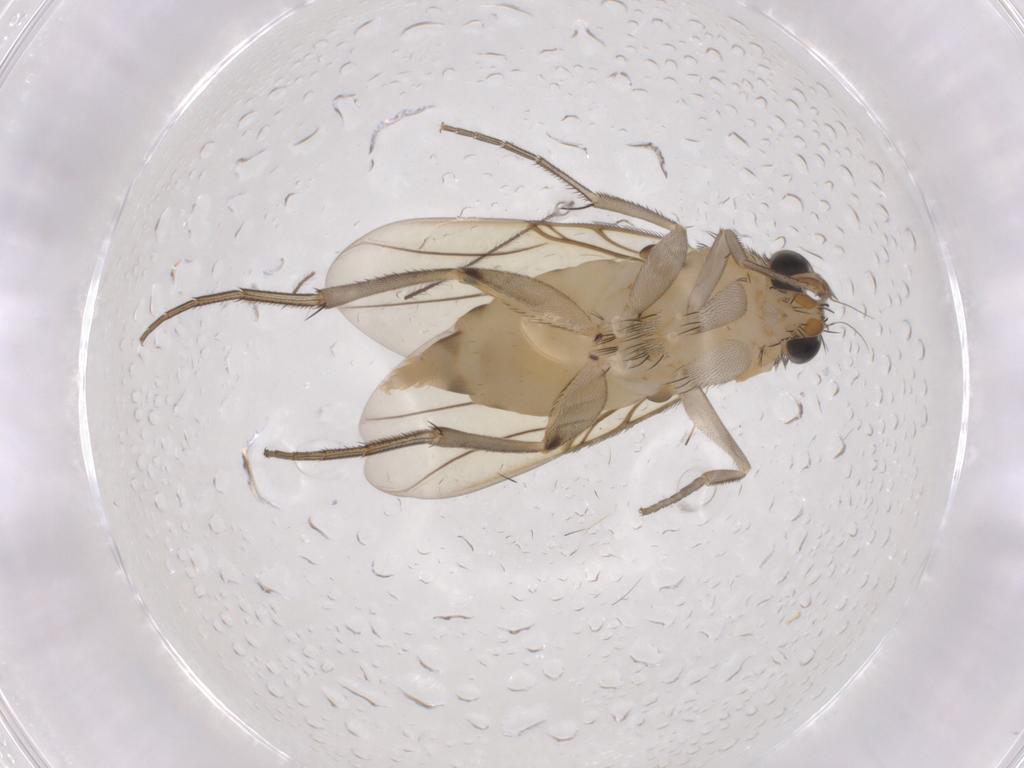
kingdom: Animalia
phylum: Arthropoda
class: Insecta
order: Diptera
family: Phoridae
